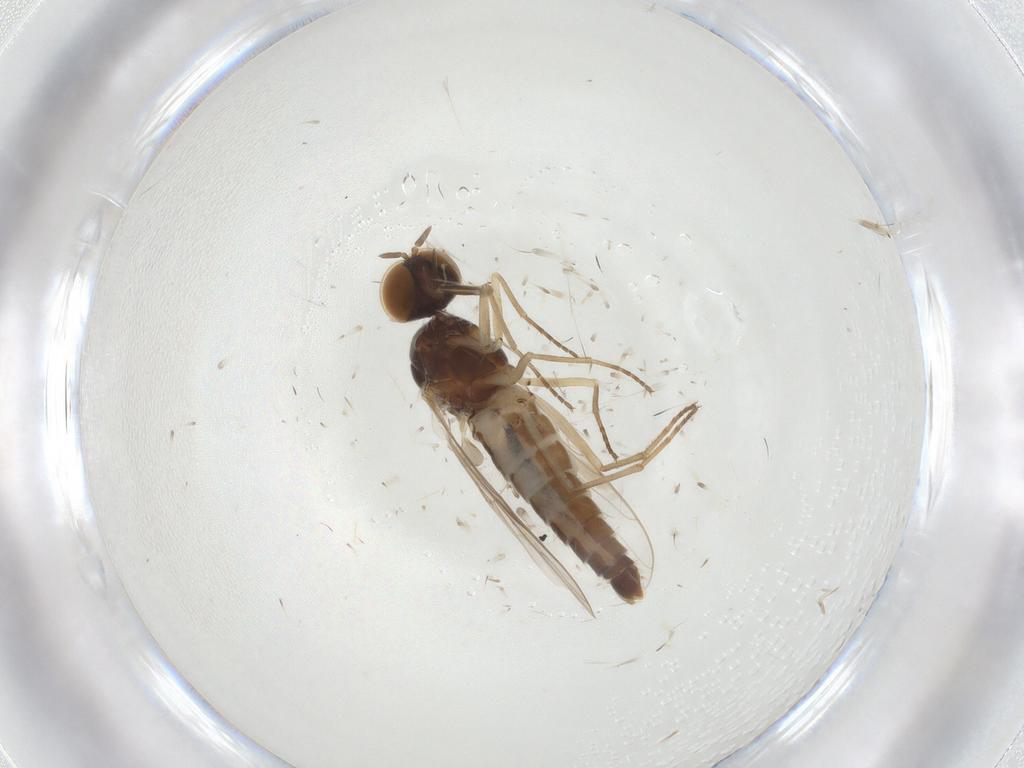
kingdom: Animalia
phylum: Arthropoda
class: Insecta
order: Diptera
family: Scenopinidae
